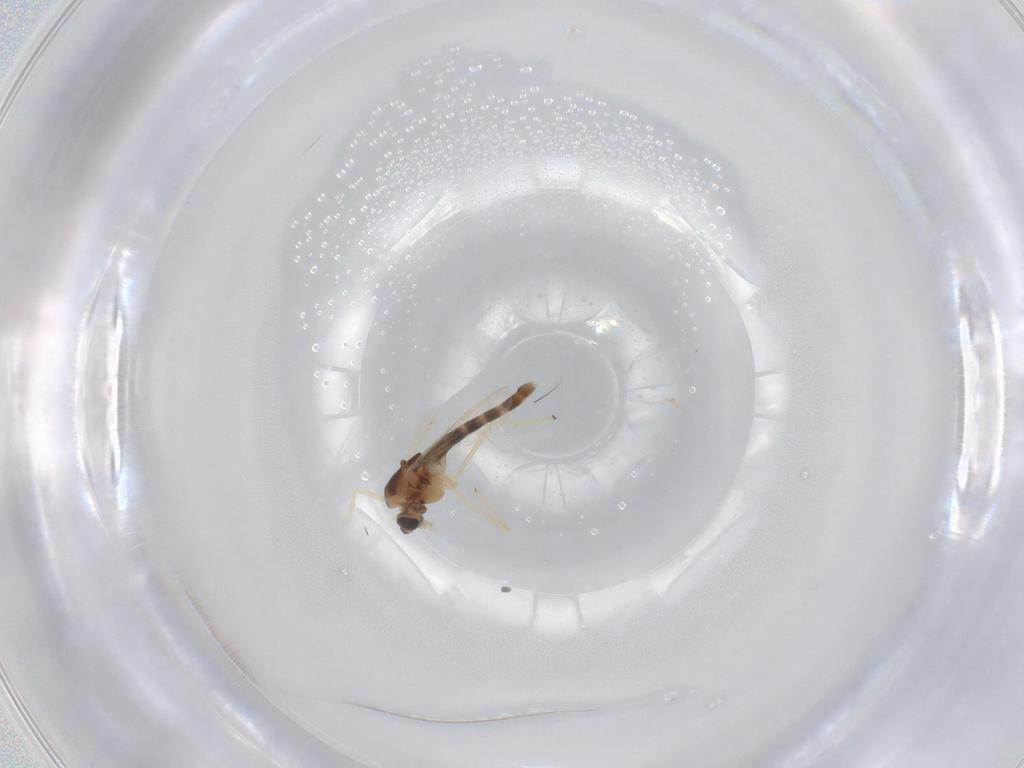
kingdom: Animalia
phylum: Arthropoda
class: Insecta
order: Diptera
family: Chironomidae
